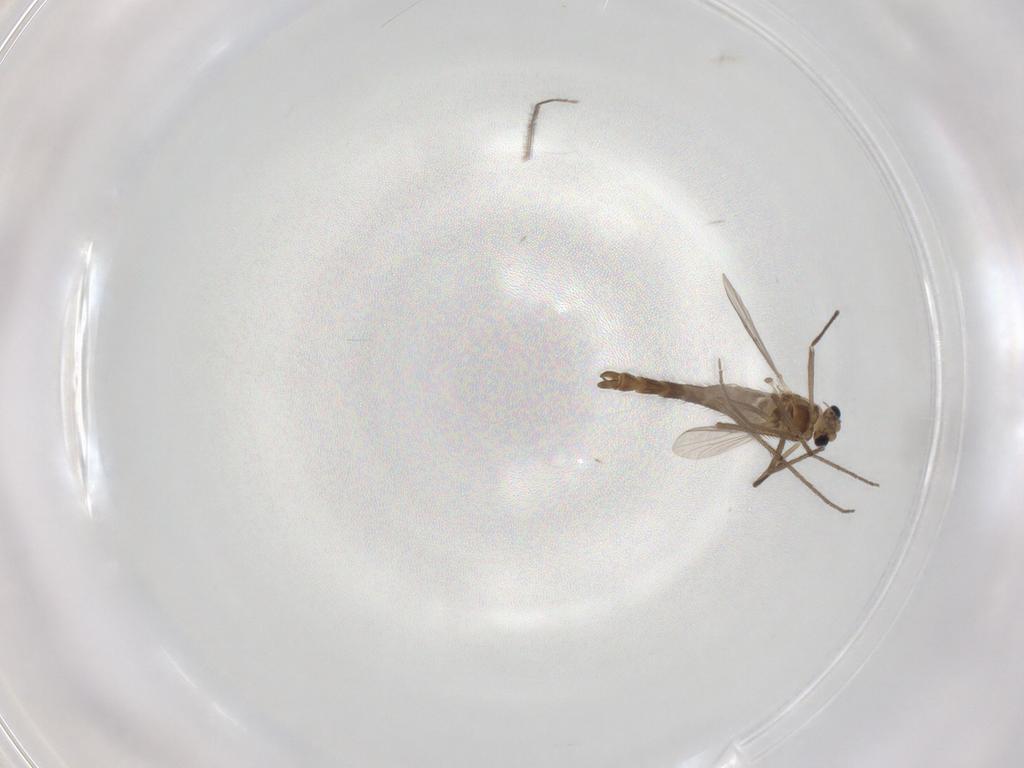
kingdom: Animalia
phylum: Arthropoda
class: Insecta
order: Diptera
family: Chironomidae
